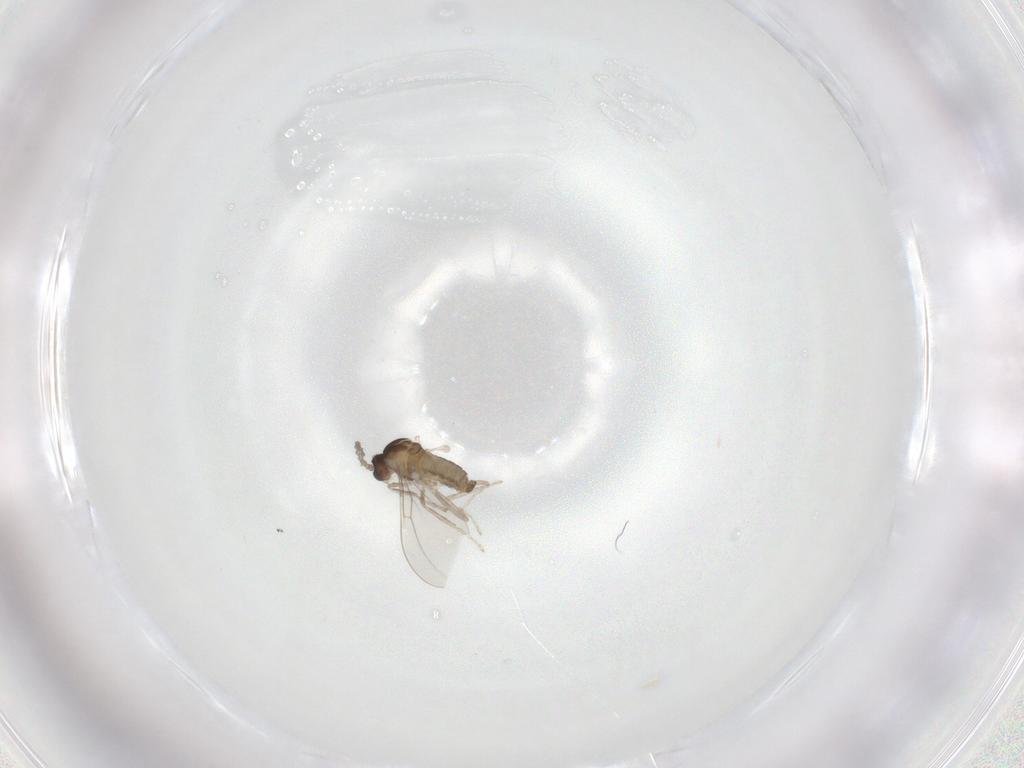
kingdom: Animalia
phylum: Arthropoda
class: Insecta
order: Diptera
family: Cecidomyiidae
